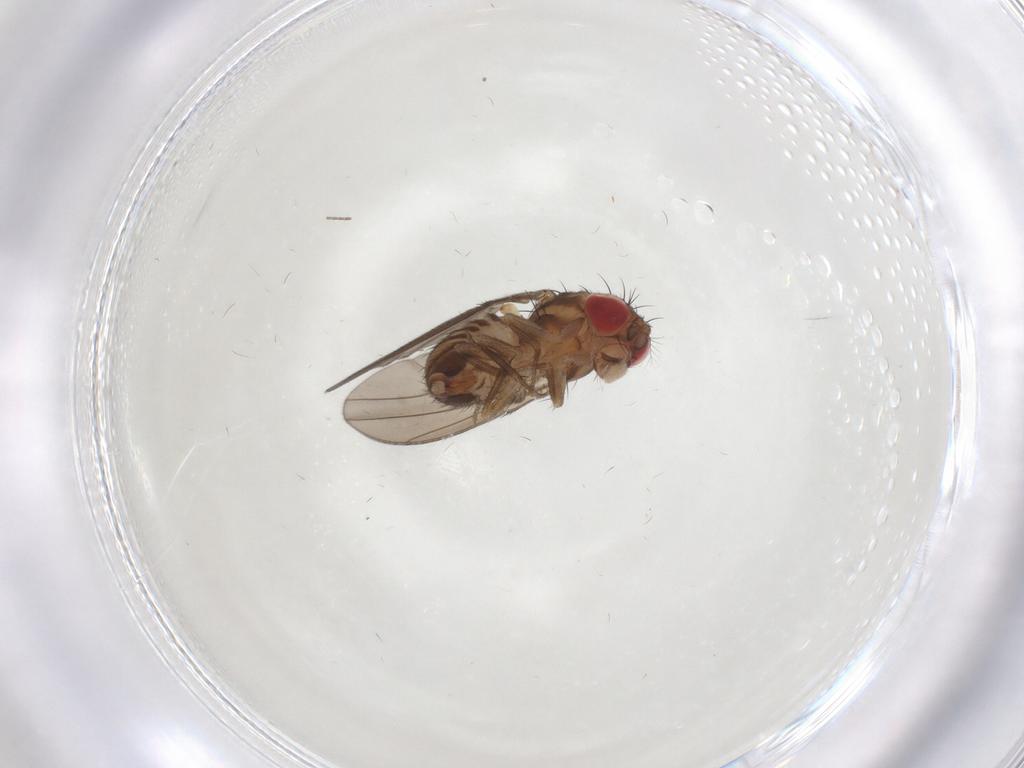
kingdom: Animalia
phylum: Arthropoda
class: Insecta
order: Diptera
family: Drosophilidae
